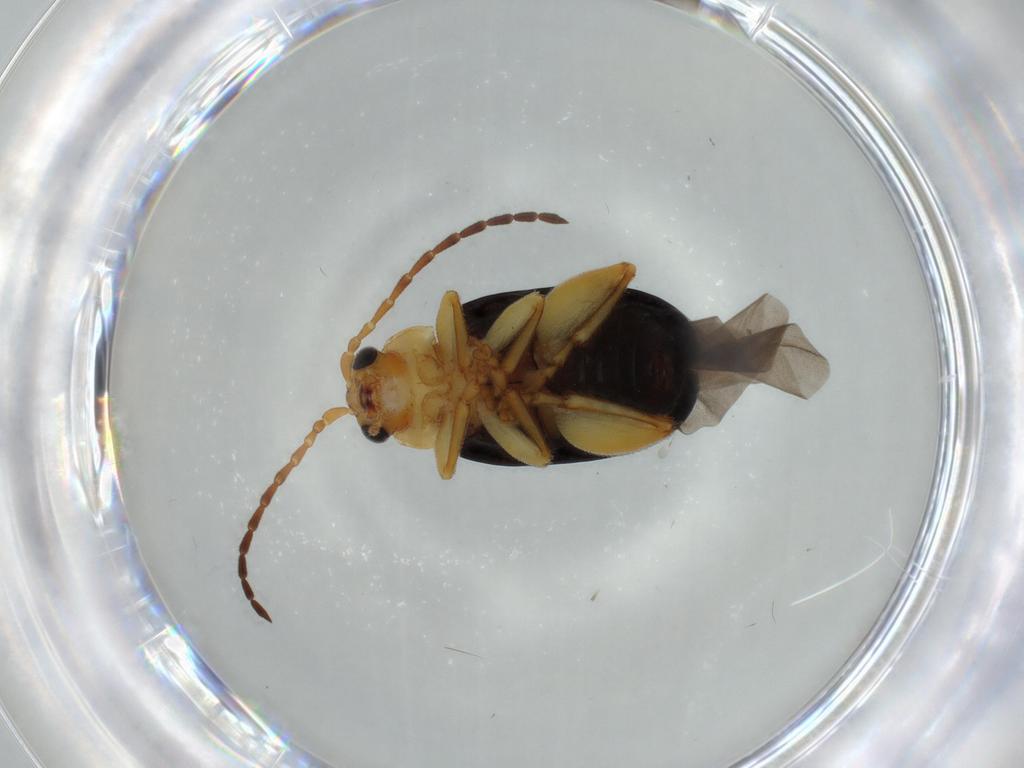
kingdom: Animalia
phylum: Arthropoda
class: Insecta
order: Coleoptera
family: Chrysomelidae
